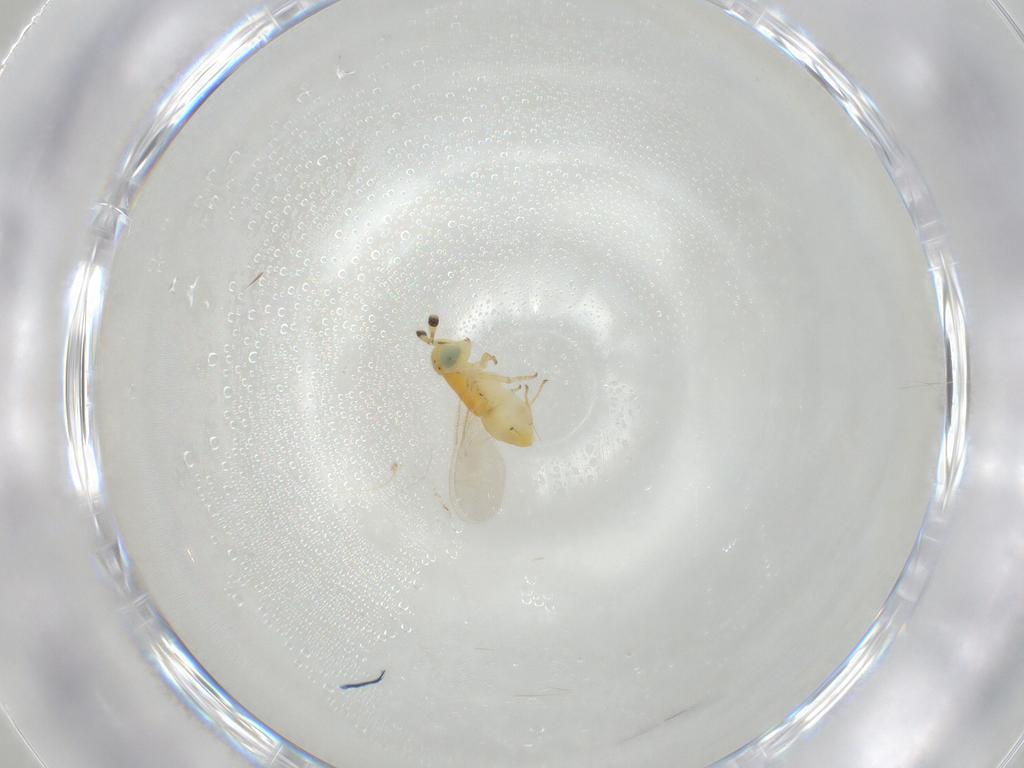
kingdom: Animalia
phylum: Arthropoda
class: Insecta
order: Hymenoptera
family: Encyrtidae
